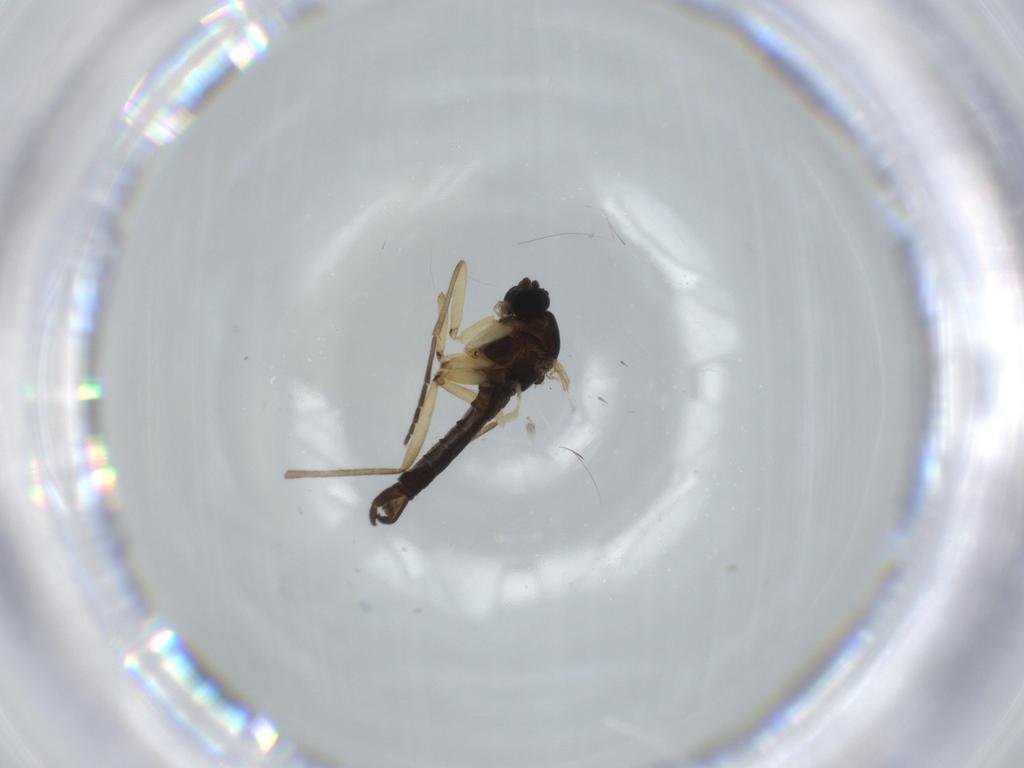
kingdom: Animalia
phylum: Arthropoda
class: Insecta
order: Diptera
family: Sciaridae
